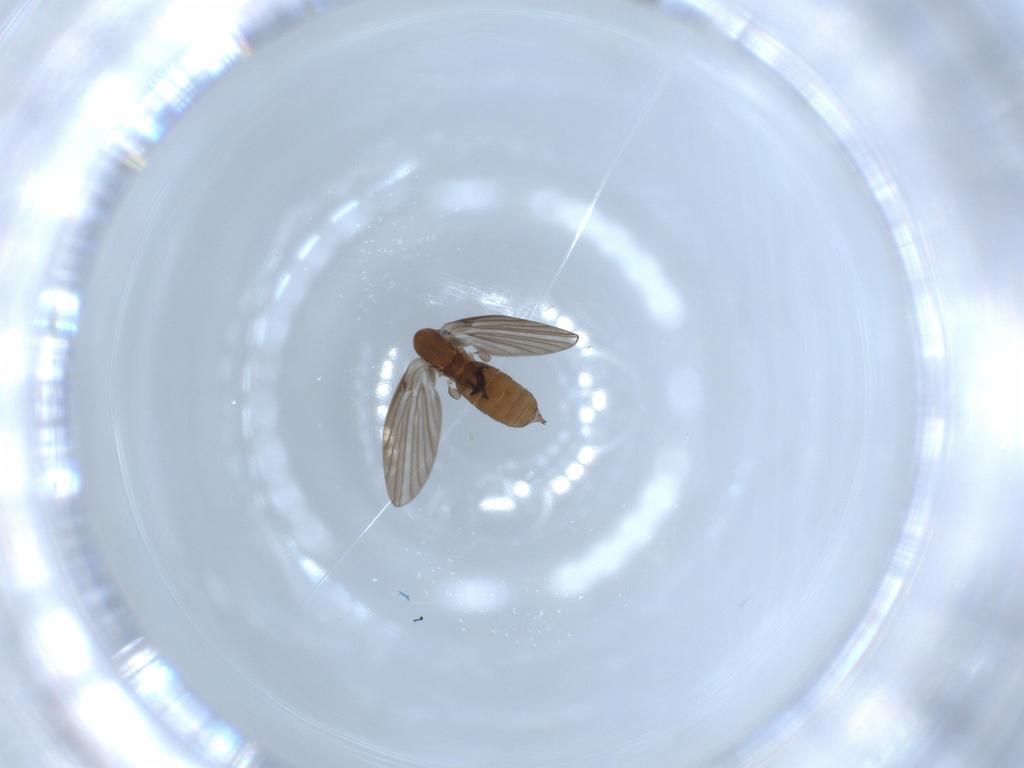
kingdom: Animalia
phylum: Arthropoda
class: Insecta
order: Diptera
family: Psychodidae
